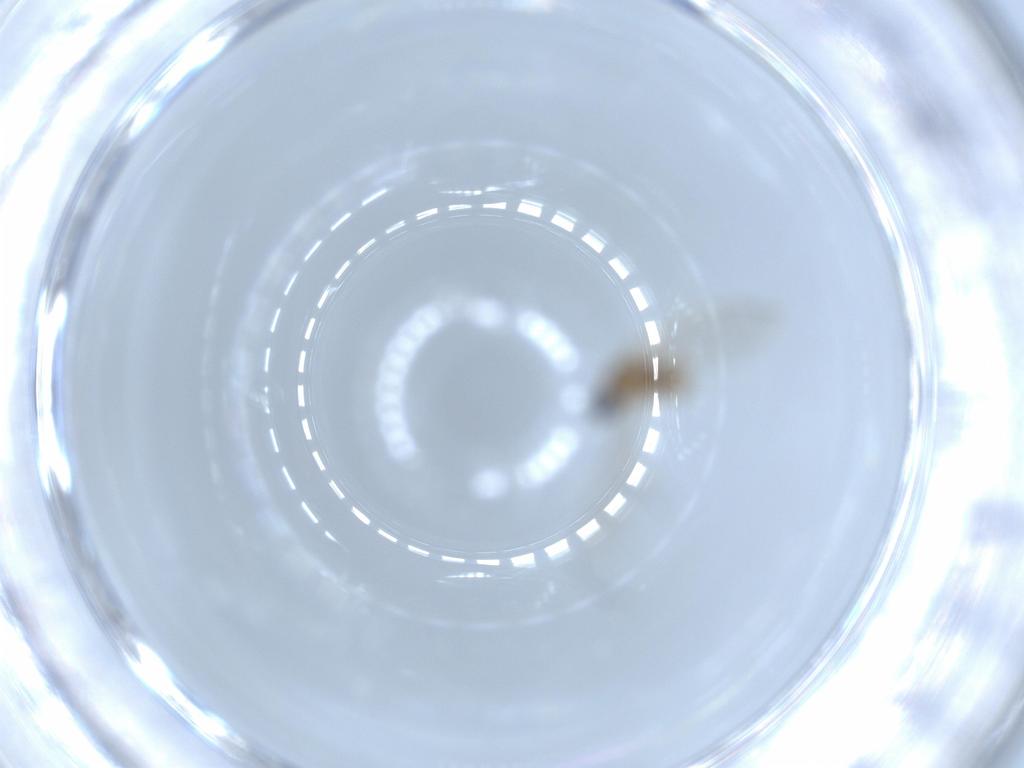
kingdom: Animalia
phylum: Arthropoda
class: Insecta
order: Diptera
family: Cecidomyiidae
